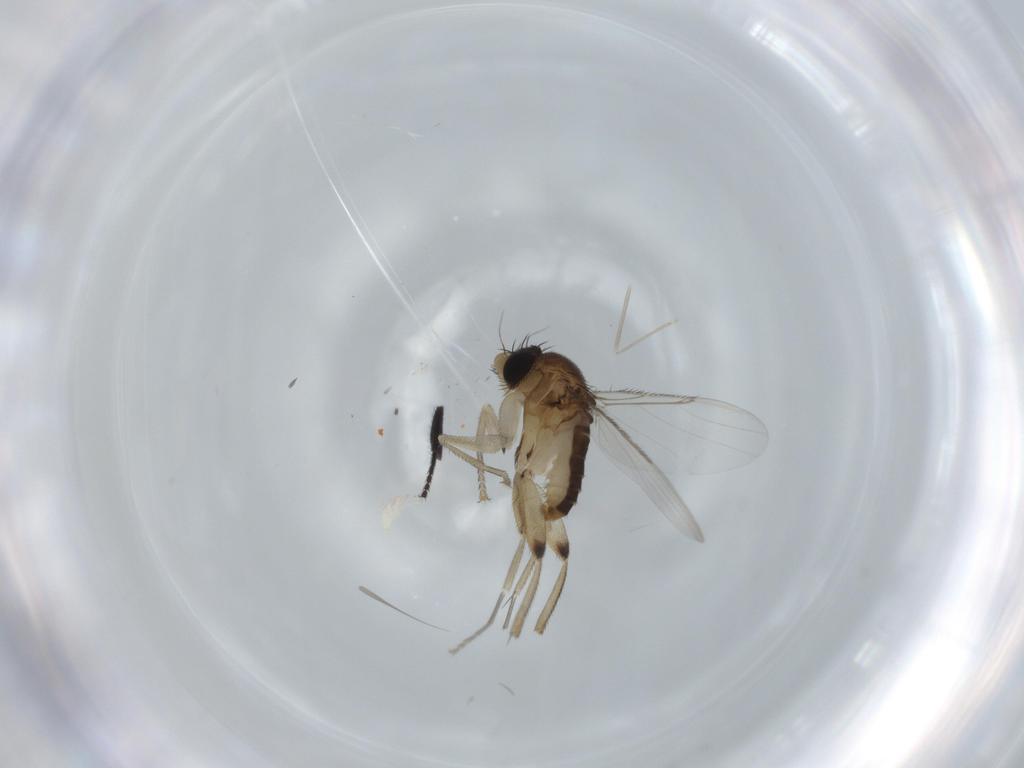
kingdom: Animalia
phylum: Arthropoda
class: Insecta
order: Diptera
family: Phoridae
